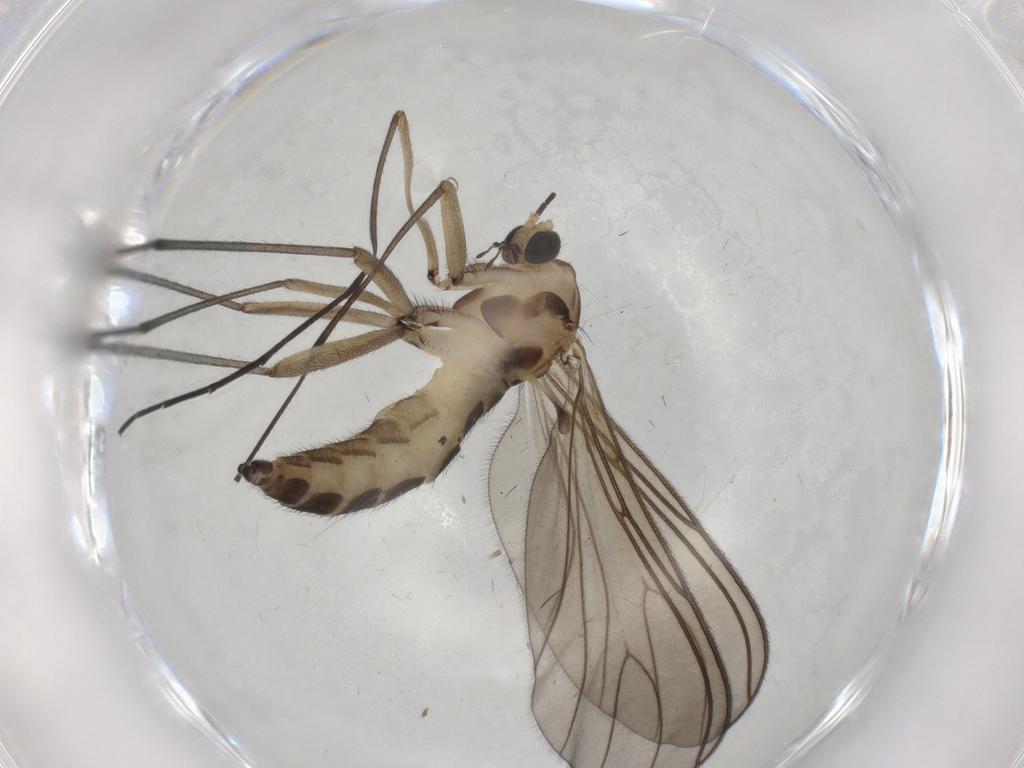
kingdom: Animalia
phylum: Arthropoda
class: Insecta
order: Diptera
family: Sciaridae
